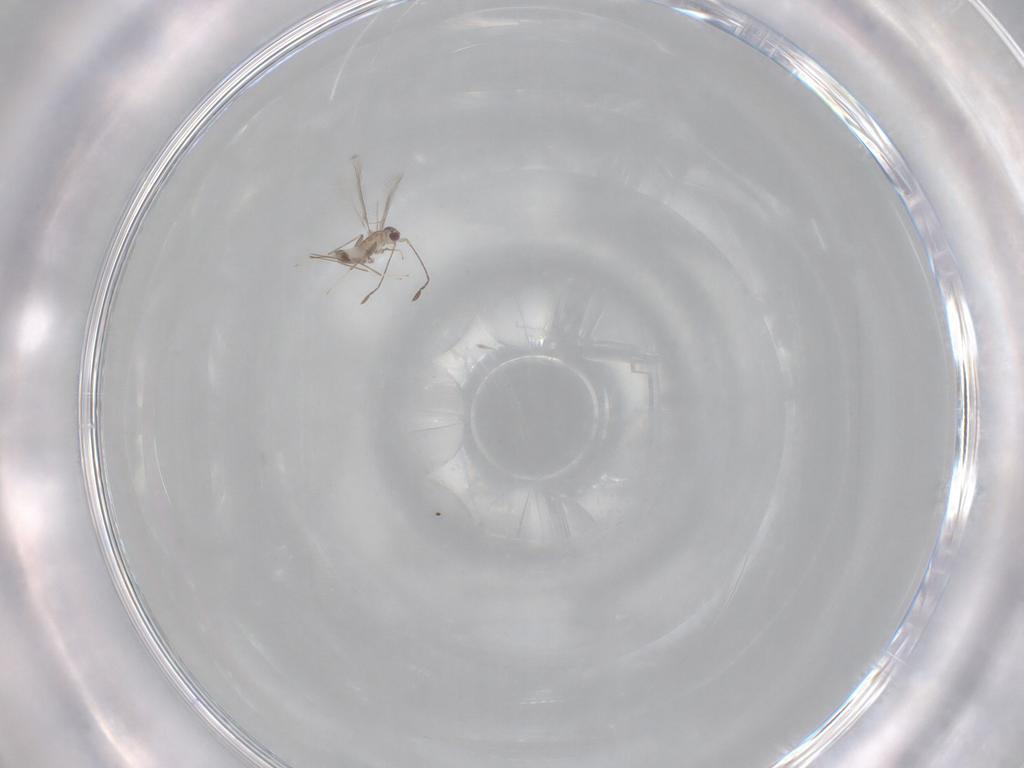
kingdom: Animalia
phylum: Arthropoda
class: Insecta
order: Hymenoptera
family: Mymaridae
